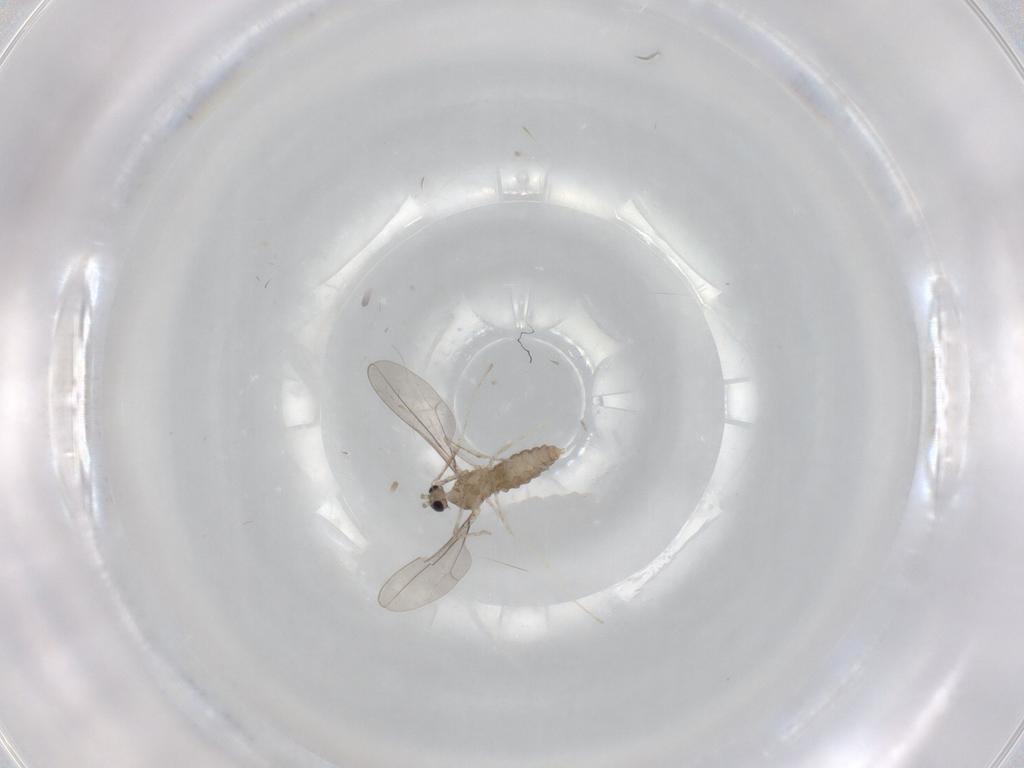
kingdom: Animalia
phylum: Arthropoda
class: Insecta
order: Diptera
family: Cecidomyiidae
